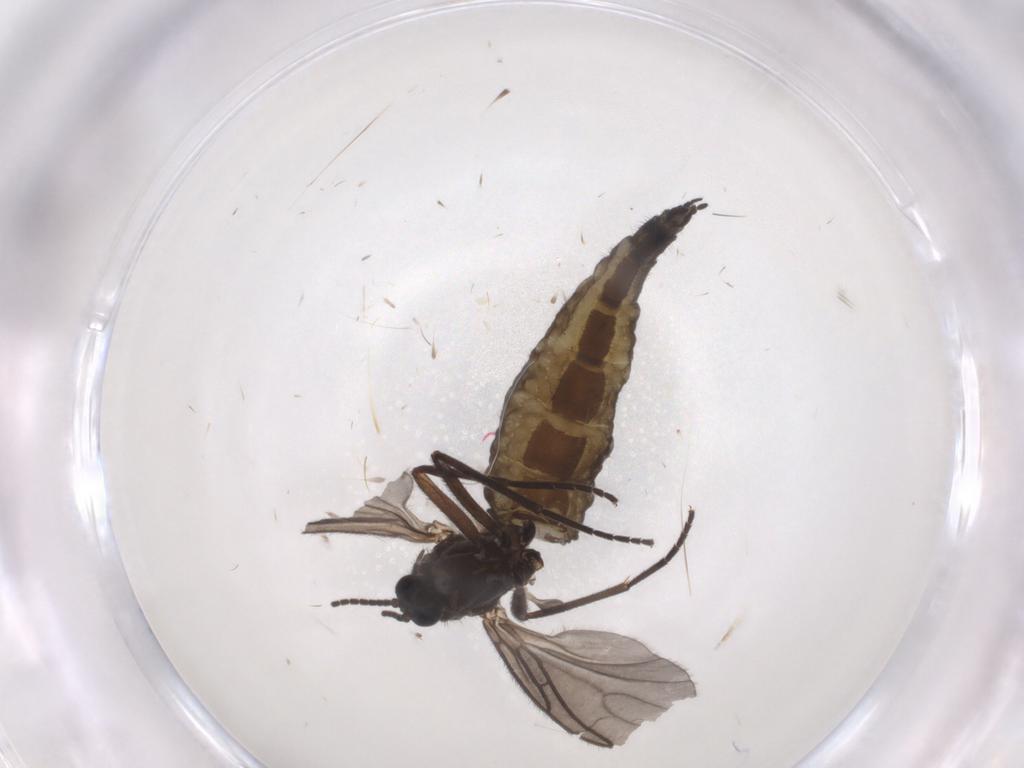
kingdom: Animalia
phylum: Arthropoda
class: Insecta
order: Diptera
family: Sciaridae
